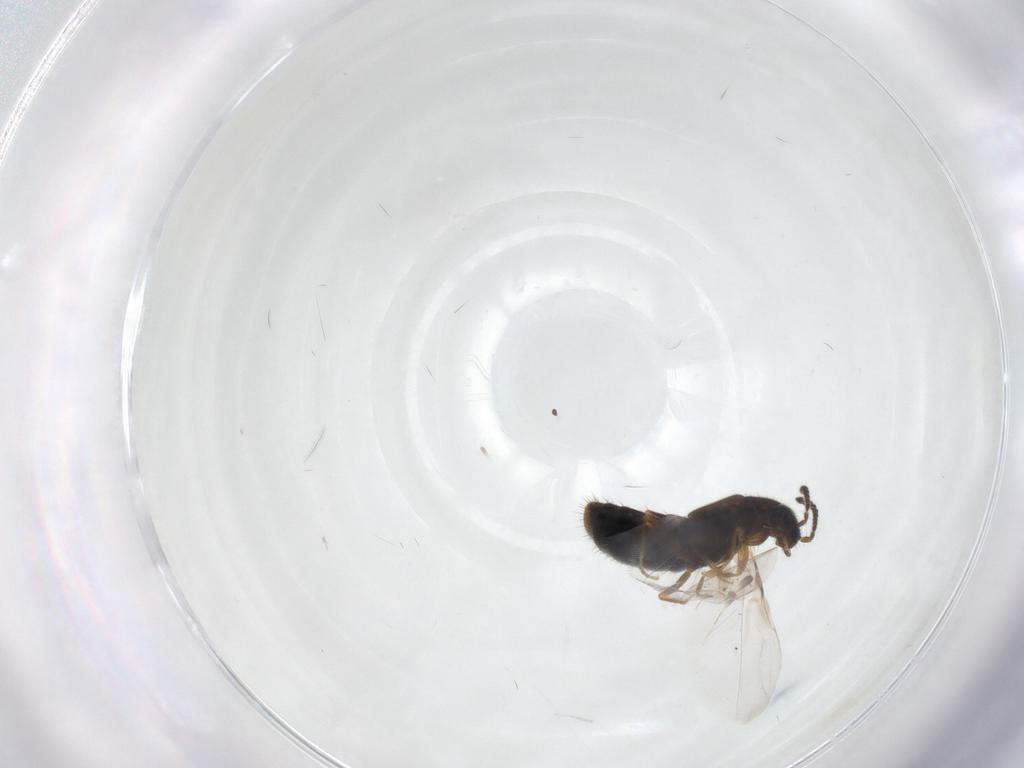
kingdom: Animalia
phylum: Arthropoda
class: Insecta
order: Coleoptera
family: Staphylinidae
